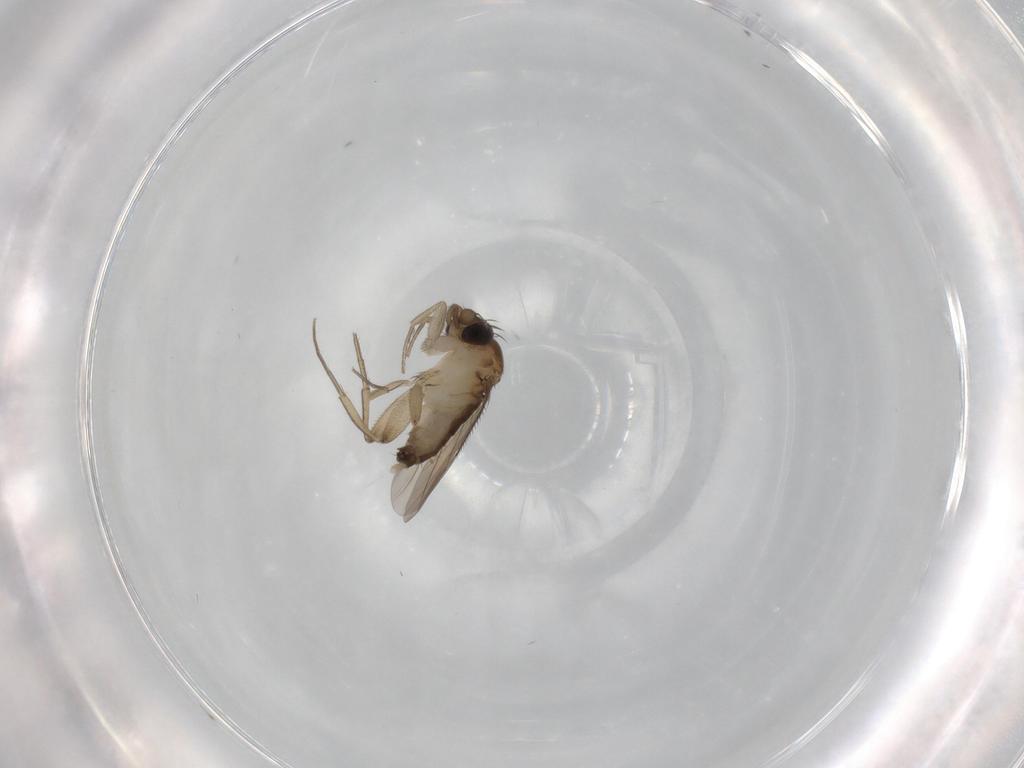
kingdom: Animalia
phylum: Arthropoda
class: Insecta
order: Diptera
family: Phoridae
